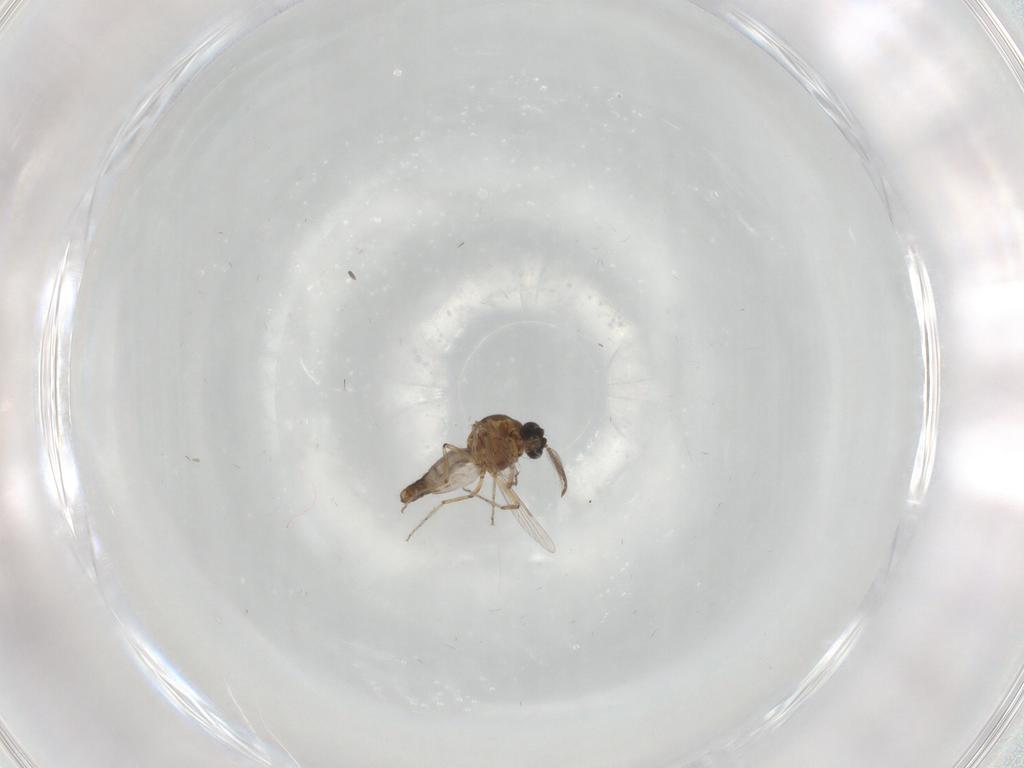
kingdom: Animalia
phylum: Arthropoda
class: Insecta
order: Diptera
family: Ceratopogonidae
